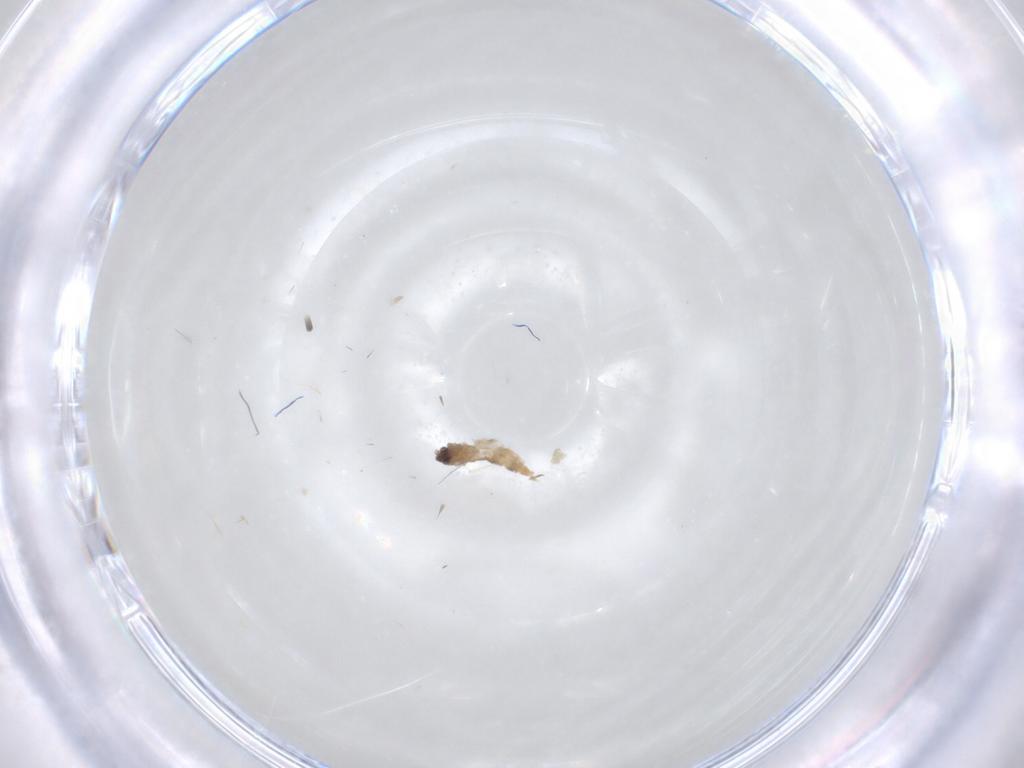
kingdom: Animalia
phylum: Arthropoda
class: Insecta
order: Diptera
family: Cecidomyiidae
